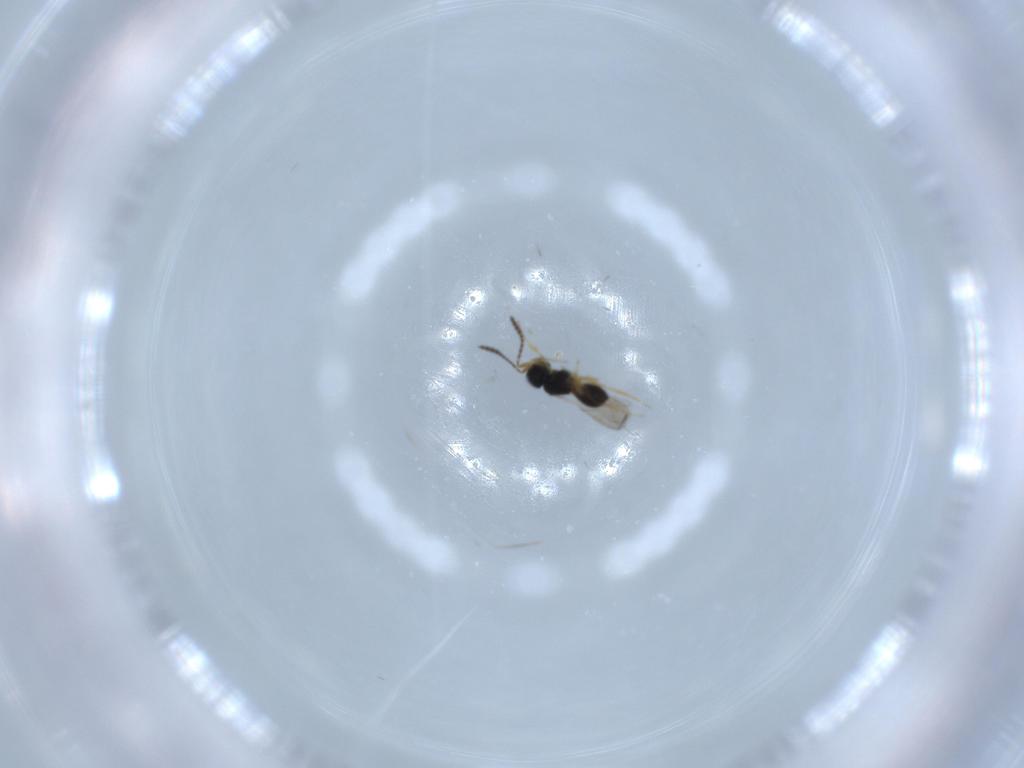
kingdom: Animalia
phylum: Arthropoda
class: Insecta
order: Hymenoptera
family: Scelionidae
